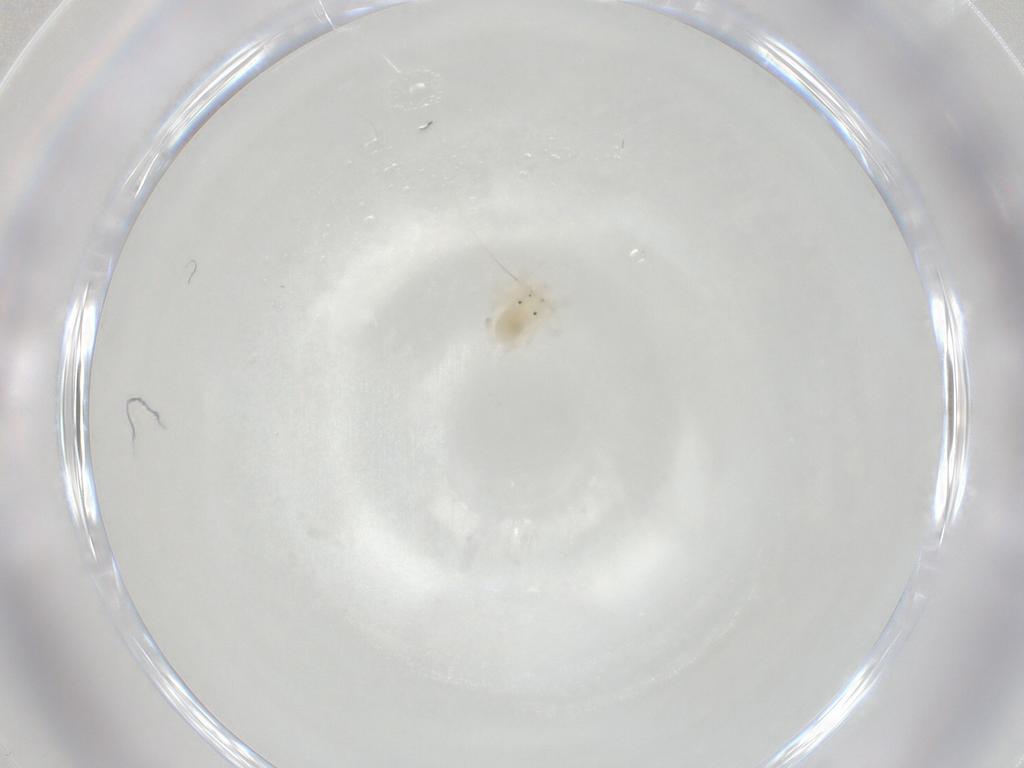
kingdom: Animalia
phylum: Arthropoda
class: Arachnida
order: Trombidiformes
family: Anystidae
